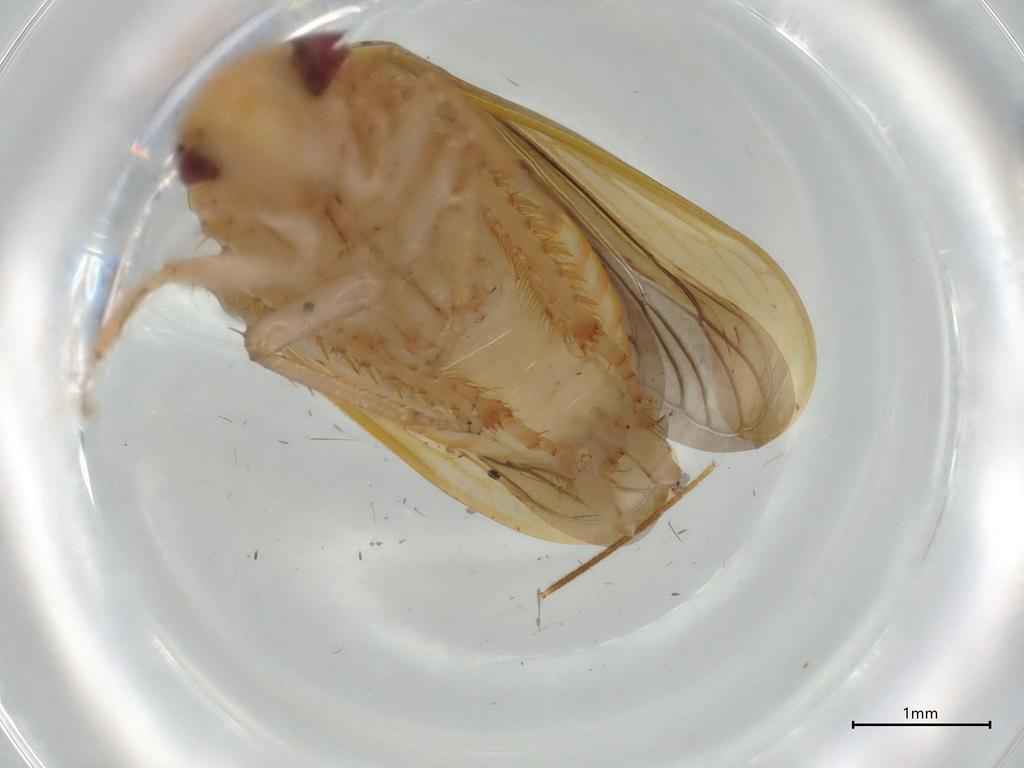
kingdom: Animalia
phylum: Arthropoda
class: Insecta
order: Hemiptera
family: Cicadellidae
